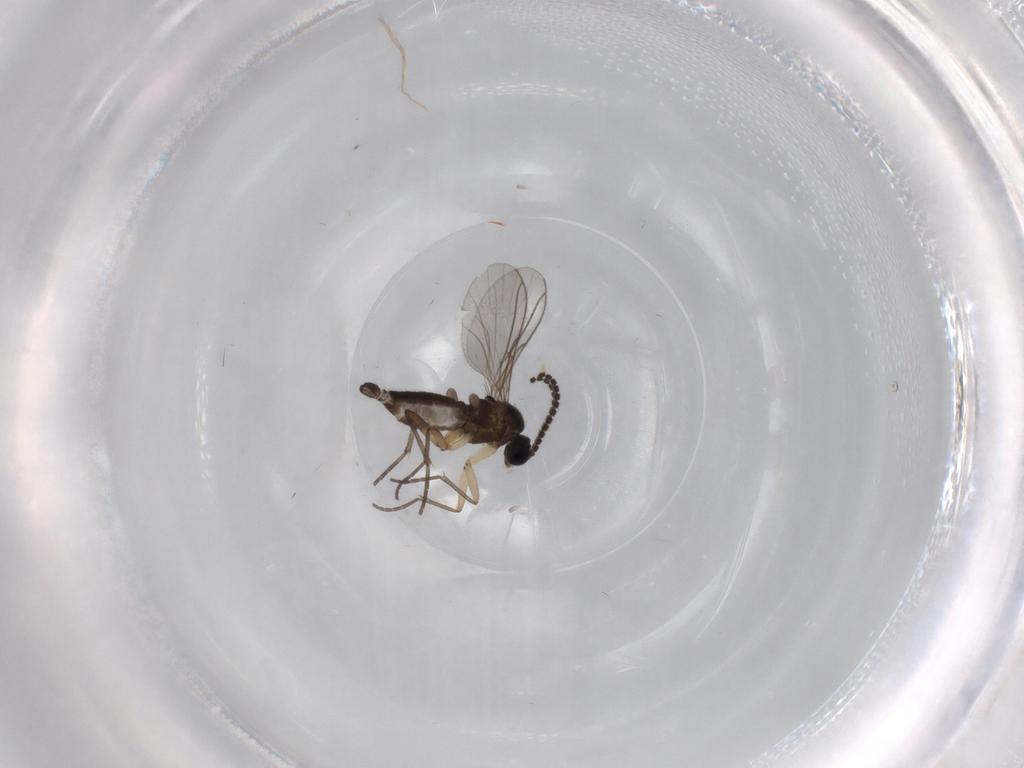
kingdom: Animalia
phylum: Arthropoda
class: Insecta
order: Diptera
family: Sciaridae
